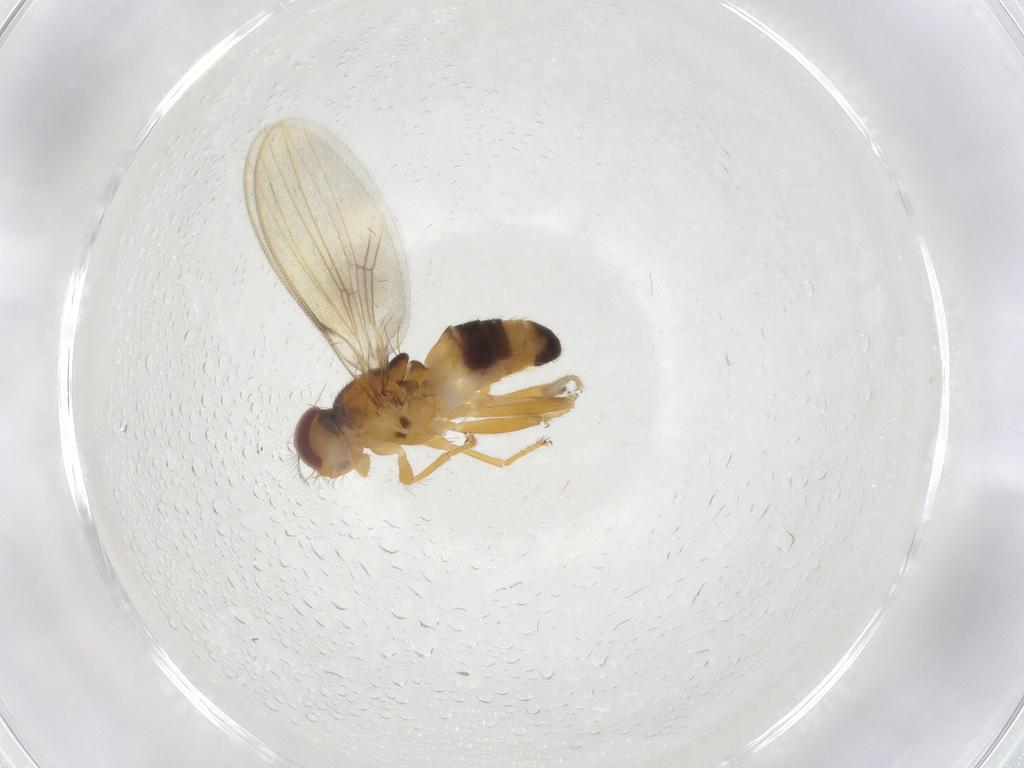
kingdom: Animalia
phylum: Arthropoda
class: Insecta
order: Diptera
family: Periscelididae
